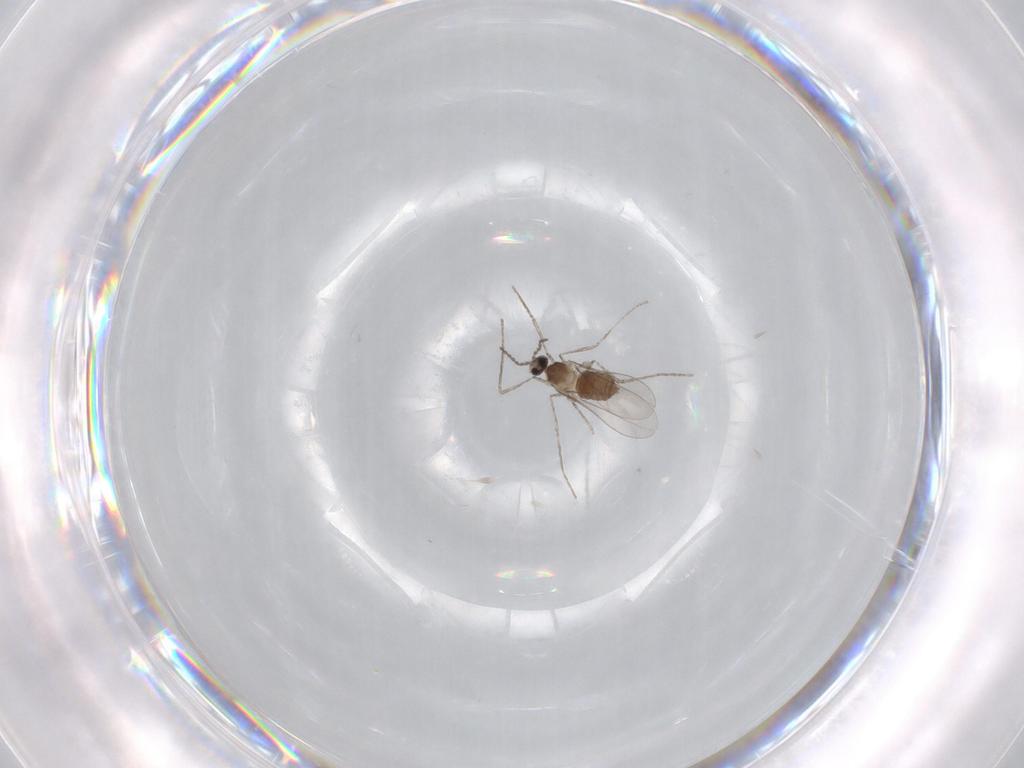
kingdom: Animalia
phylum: Arthropoda
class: Insecta
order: Diptera
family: Cecidomyiidae
